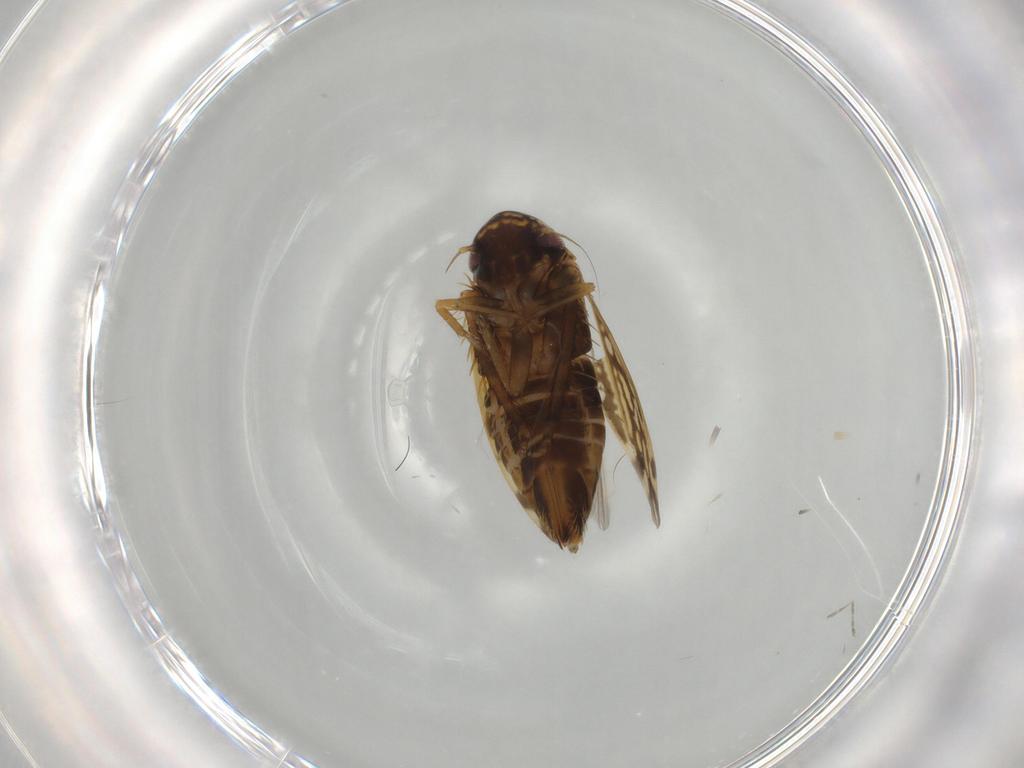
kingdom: Animalia
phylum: Arthropoda
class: Insecta
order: Hemiptera
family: Cicadellidae
